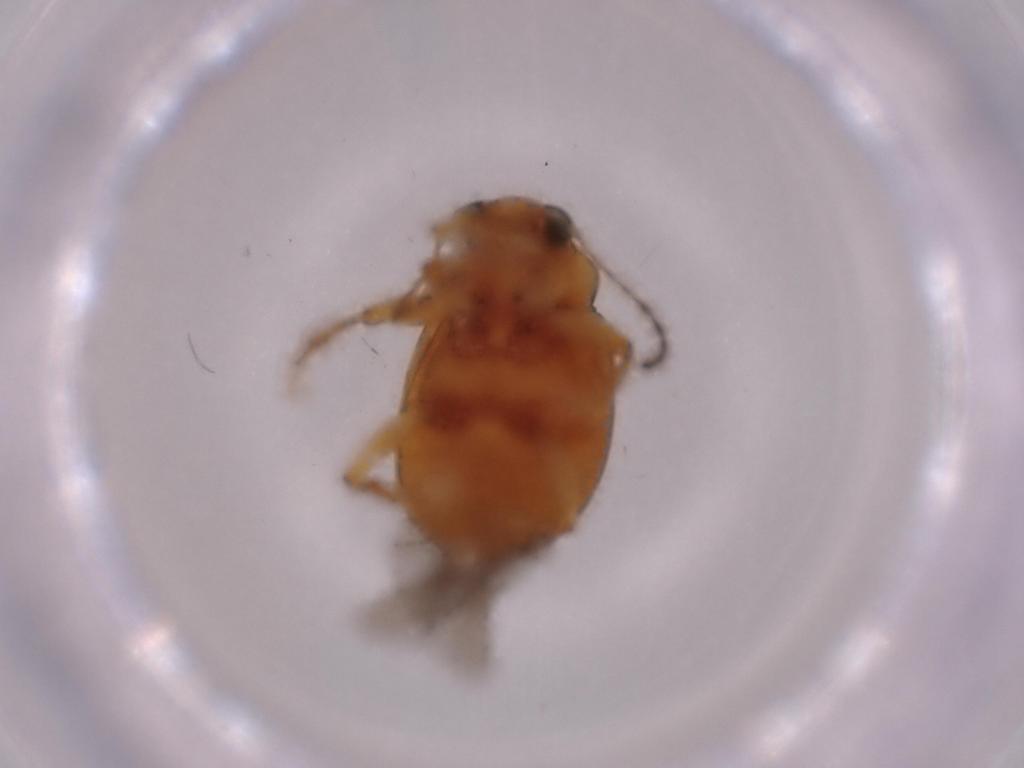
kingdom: Animalia
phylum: Arthropoda
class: Insecta
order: Coleoptera
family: Chrysomelidae
